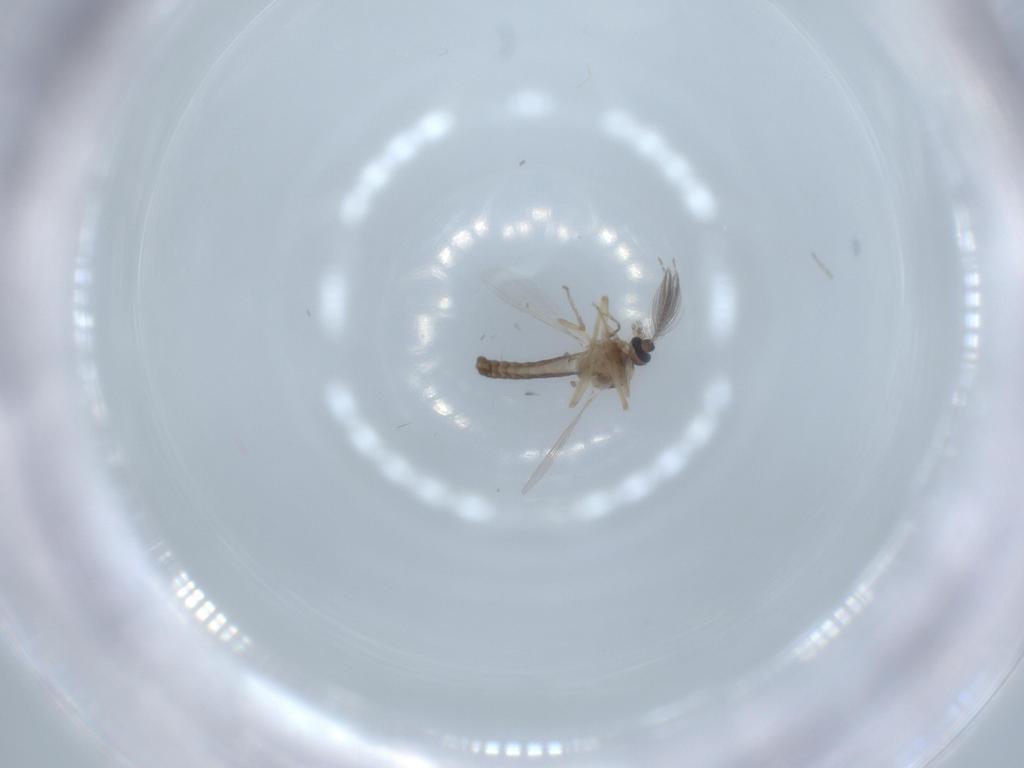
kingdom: Animalia
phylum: Arthropoda
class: Insecta
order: Diptera
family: Ceratopogonidae
